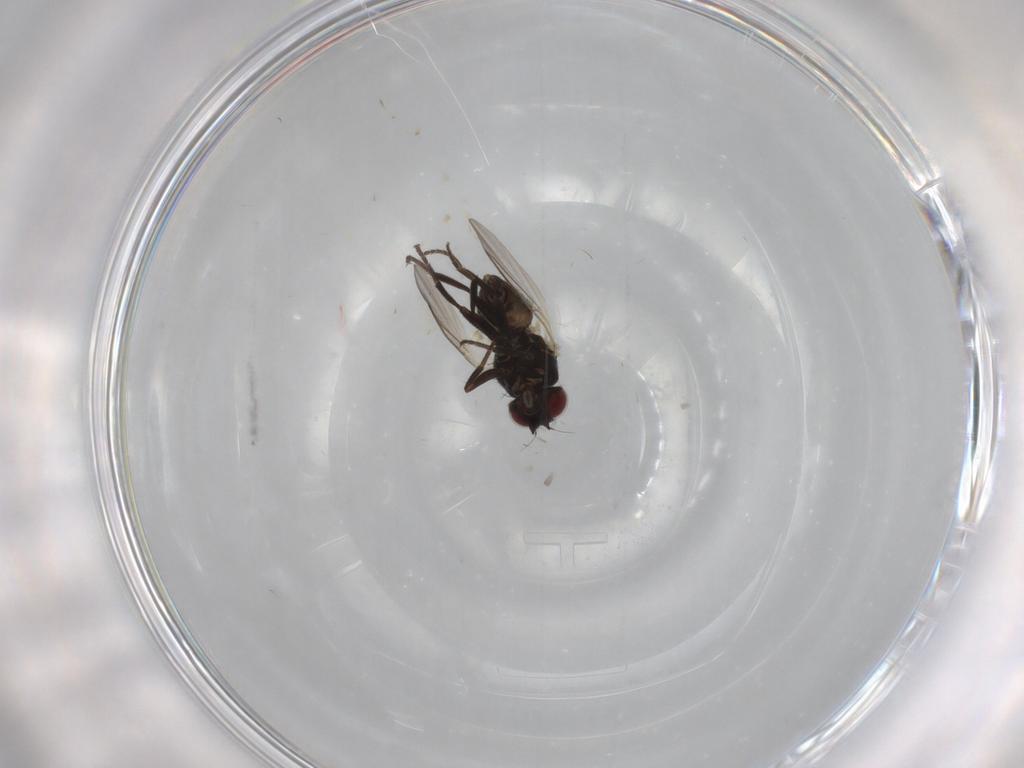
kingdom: Animalia
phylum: Arthropoda
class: Insecta
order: Diptera
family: Agromyzidae
